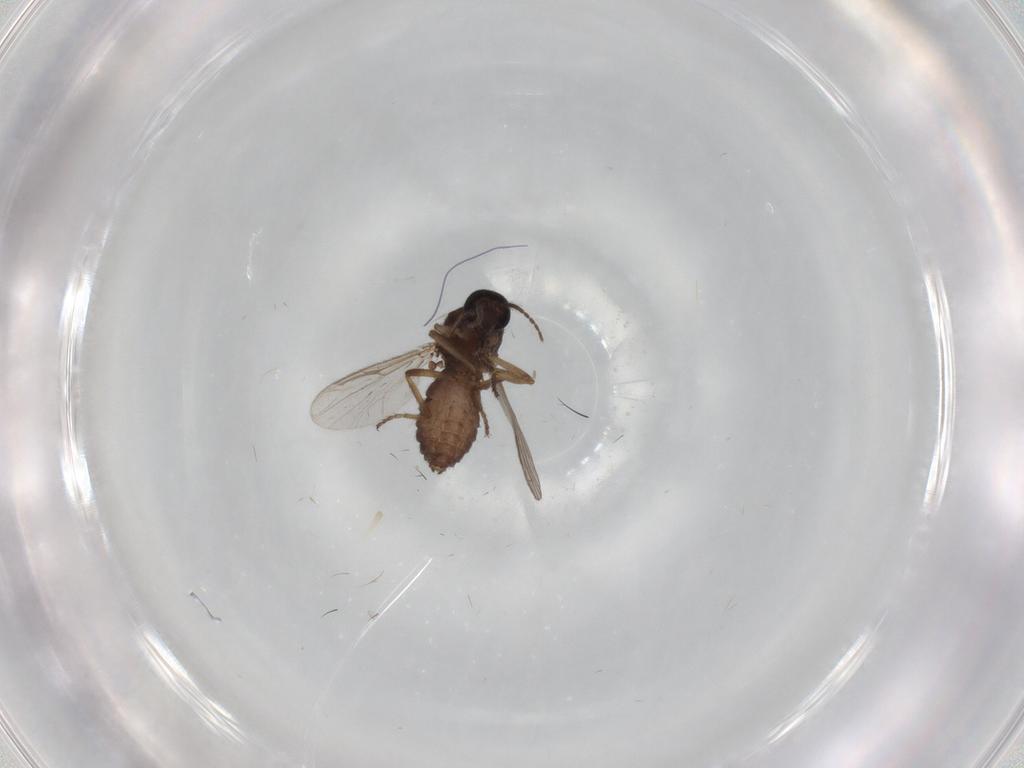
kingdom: Animalia
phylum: Arthropoda
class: Insecta
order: Diptera
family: Ceratopogonidae
